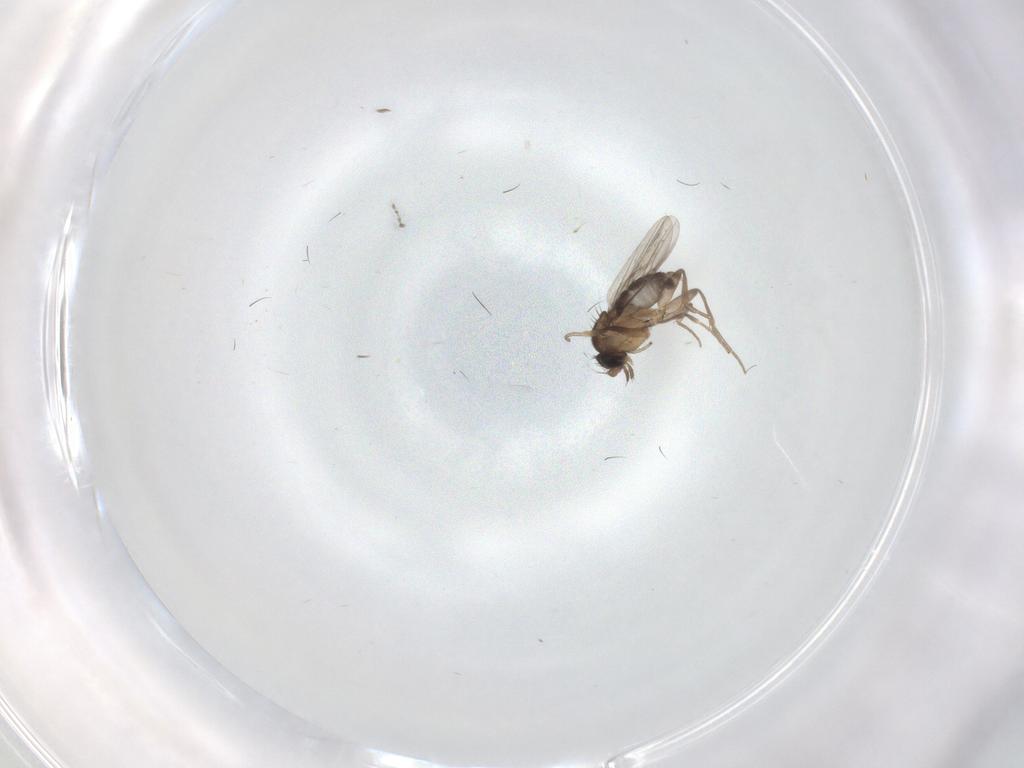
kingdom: Animalia
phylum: Arthropoda
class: Insecta
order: Diptera
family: Cecidomyiidae
